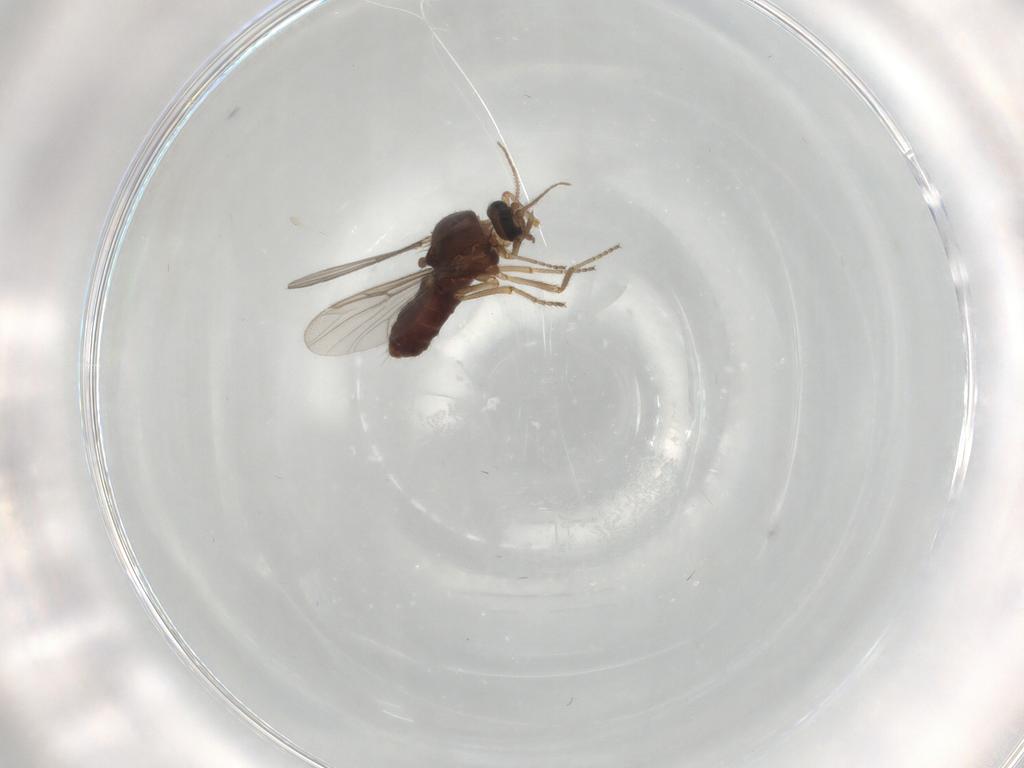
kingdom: Animalia
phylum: Arthropoda
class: Insecta
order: Diptera
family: Ceratopogonidae
